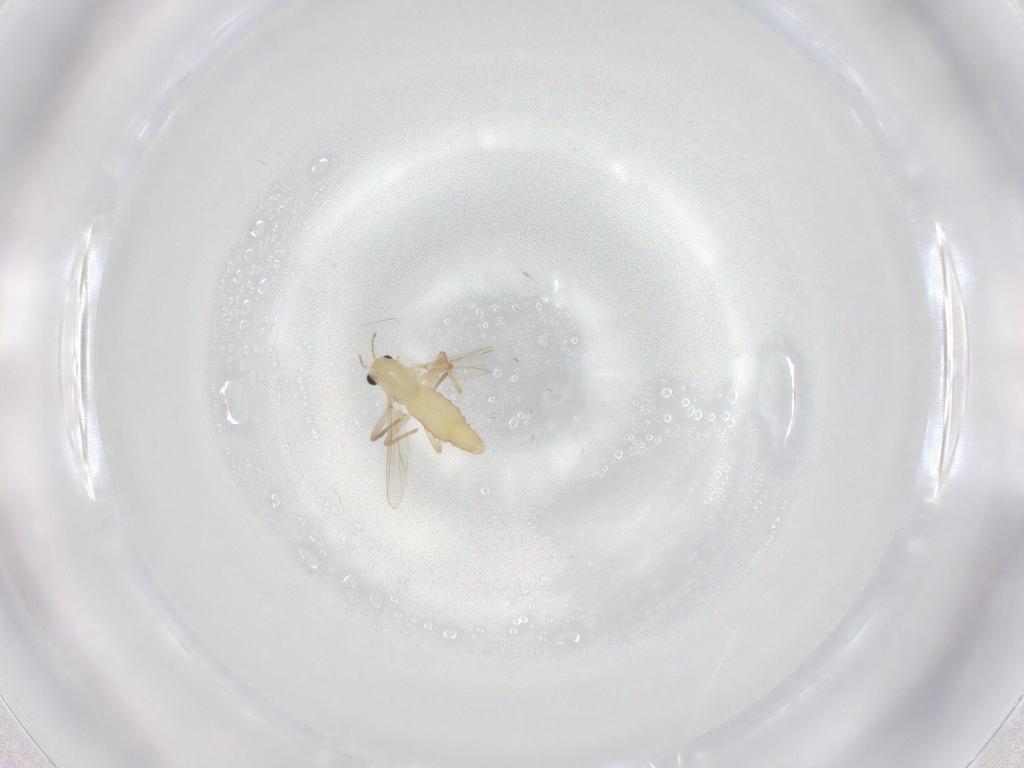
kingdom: Animalia
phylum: Arthropoda
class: Insecta
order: Diptera
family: Chironomidae
